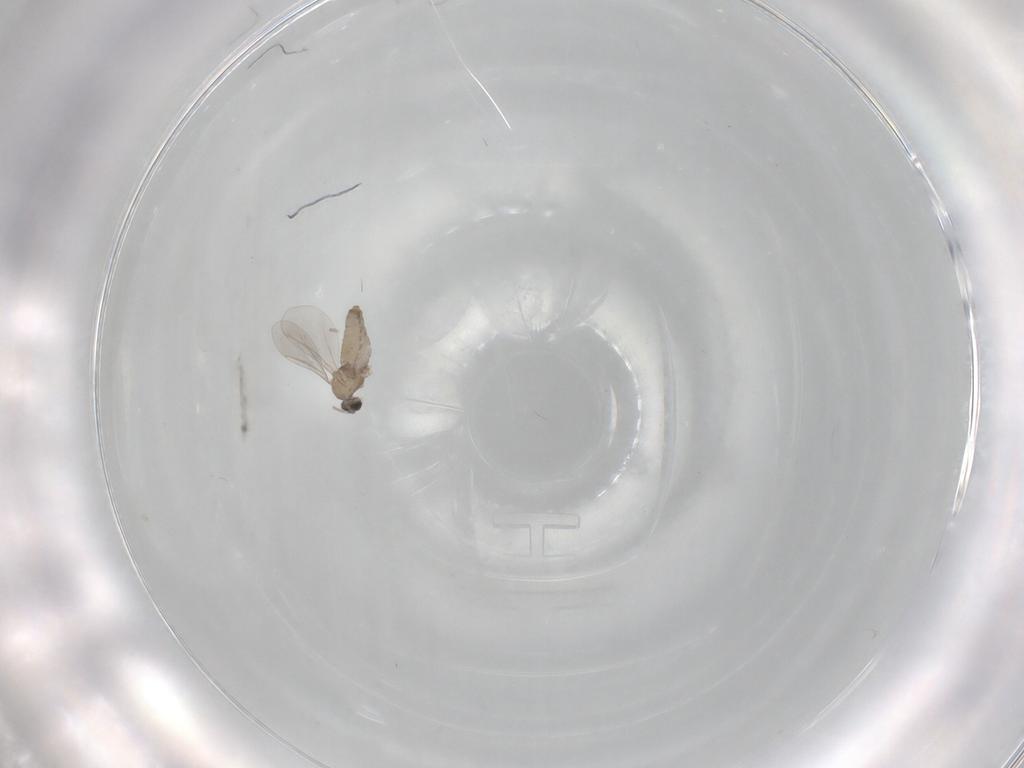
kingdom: Animalia
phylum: Arthropoda
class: Insecta
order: Diptera
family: Cecidomyiidae
